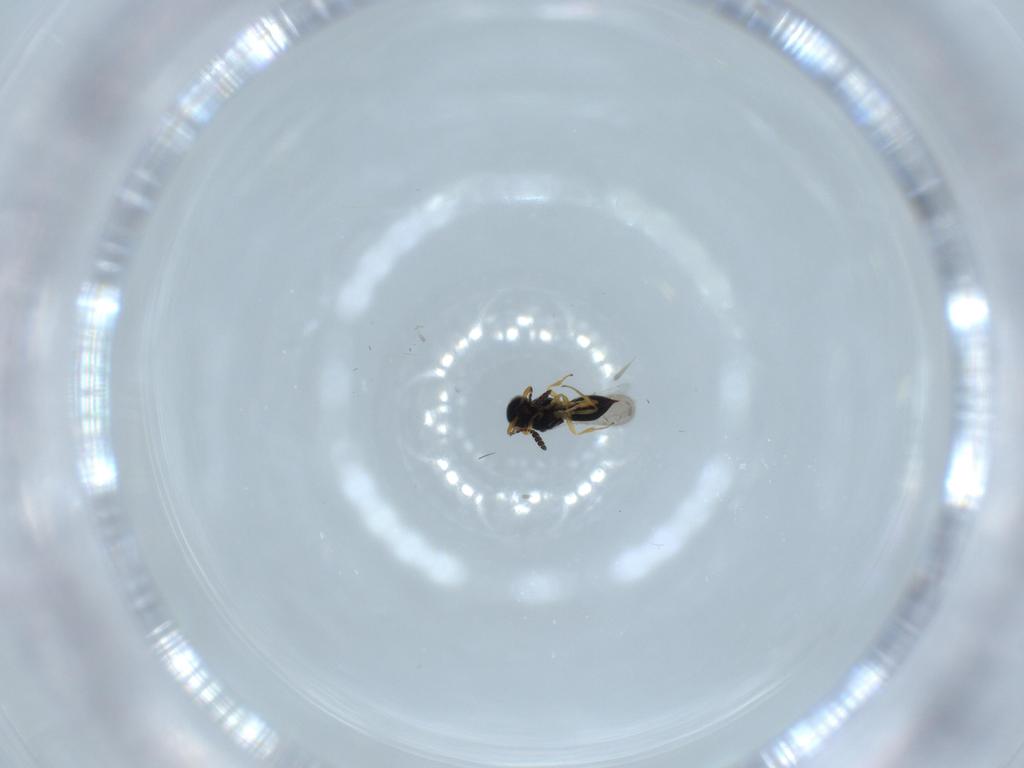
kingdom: Animalia
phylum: Arthropoda
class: Insecta
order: Hymenoptera
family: Scelionidae
